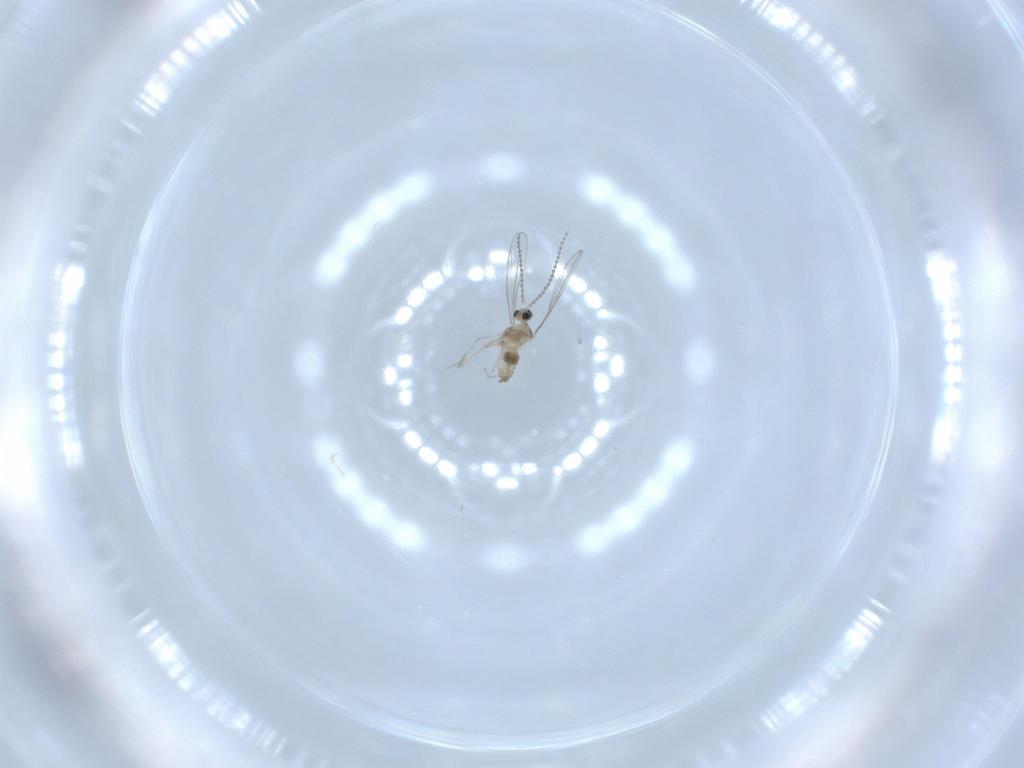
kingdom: Animalia
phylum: Arthropoda
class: Insecta
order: Diptera
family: Cecidomyiidae
